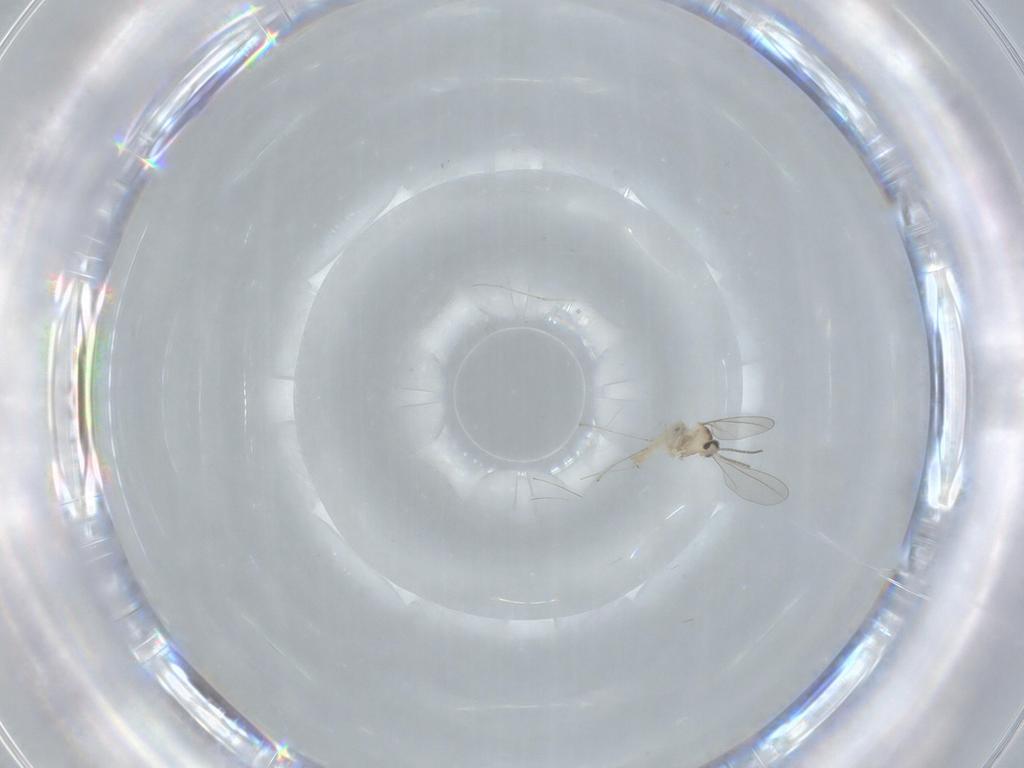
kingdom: Animalia
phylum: Arthropoda
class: Insecta
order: Diptera
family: Cecidomyiidae
